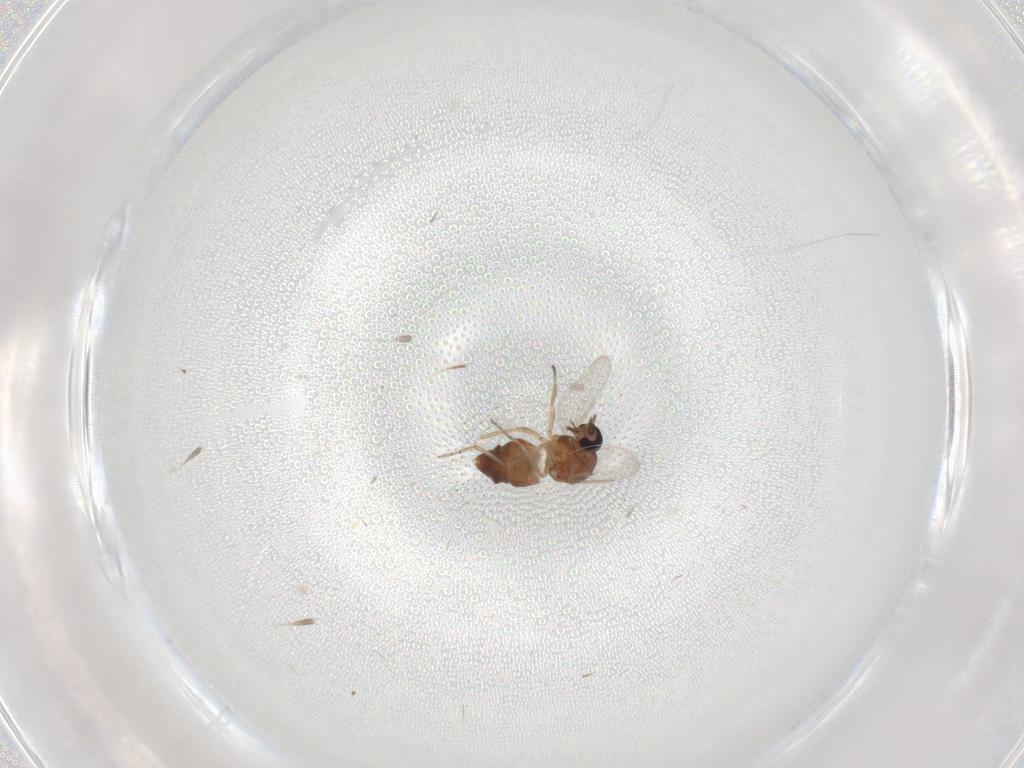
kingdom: Animalia
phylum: Arthropoda
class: Insecta
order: Diptera
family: Ceratopogonidae
